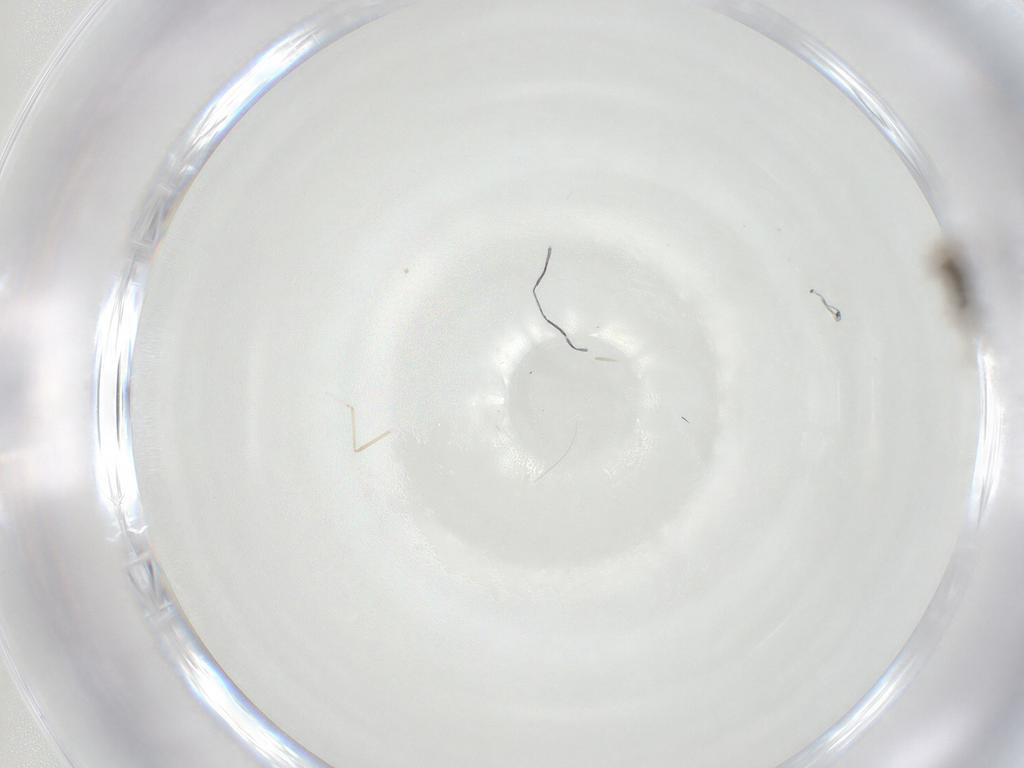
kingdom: Animalia
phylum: Arthropoda
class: Insecta
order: Hymenoptera
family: Encyrtidae
